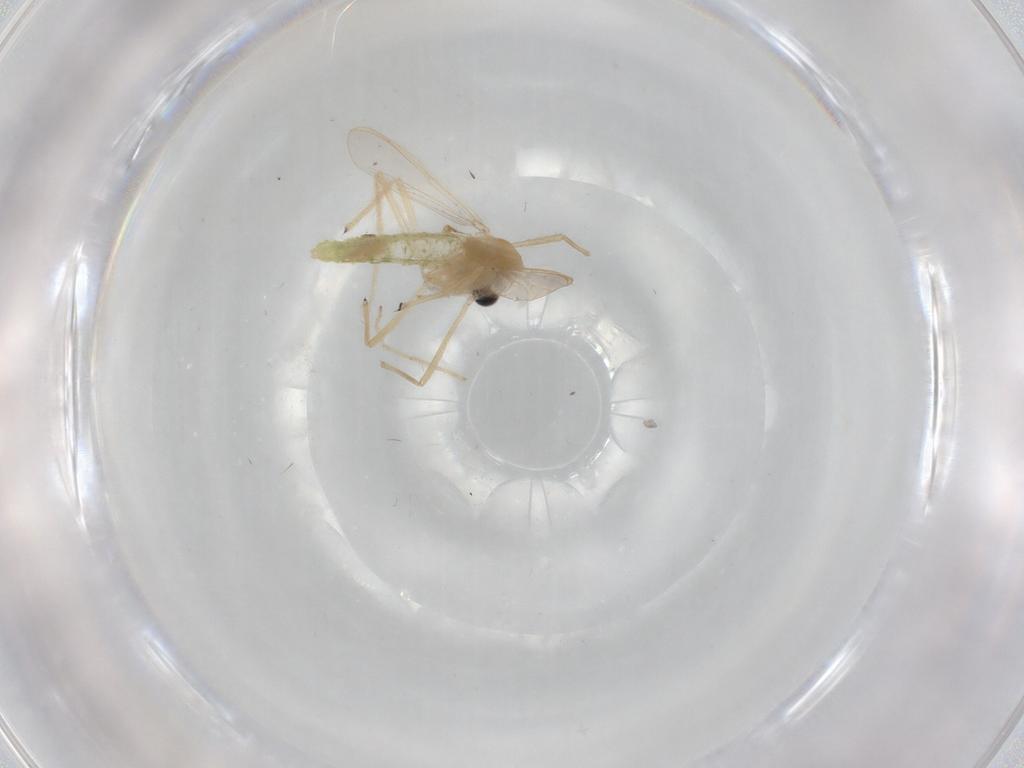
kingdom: Animalia
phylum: Arthropoda
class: Insecta
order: Diptera
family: Chironomidae
